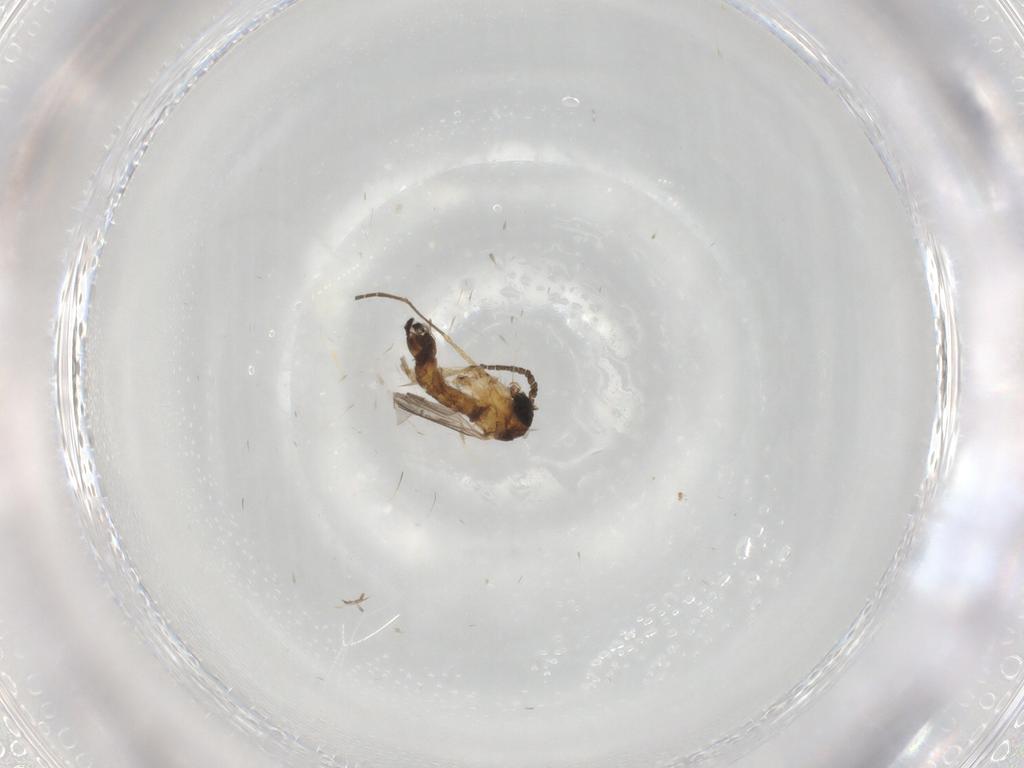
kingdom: Animalia
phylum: Arthropoda
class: Insecta
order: Diptera
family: Sciaridae
